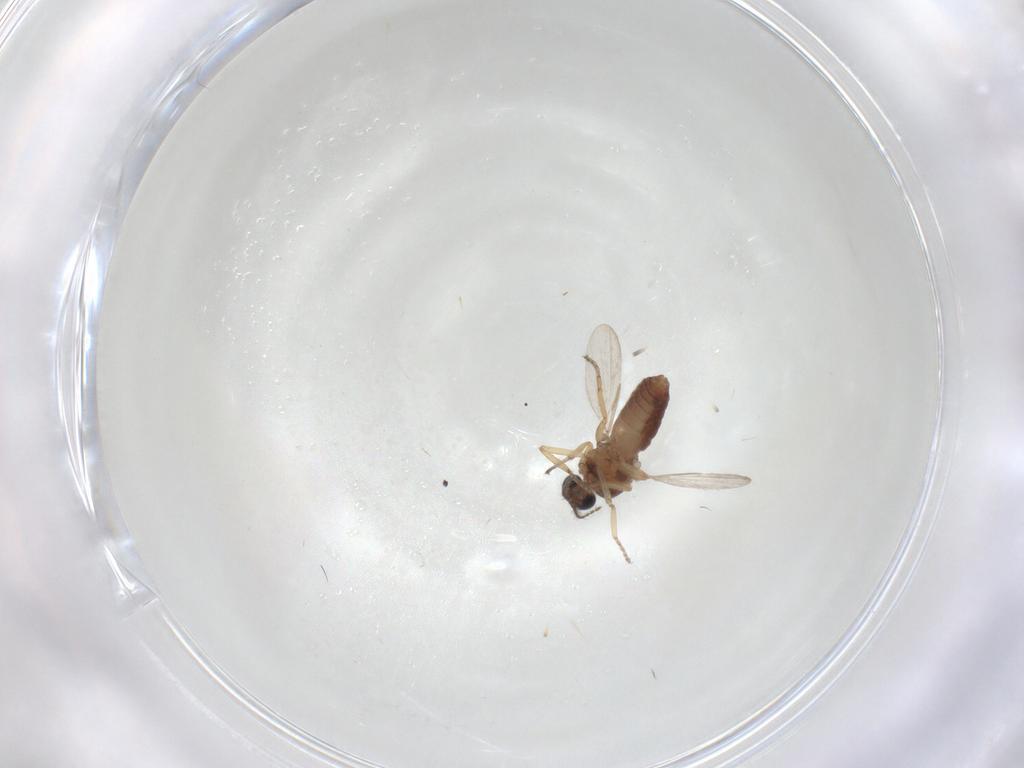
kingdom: Animalia
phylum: Arthropoda
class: Insecta
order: Diptera
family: Ceratopogonidae
